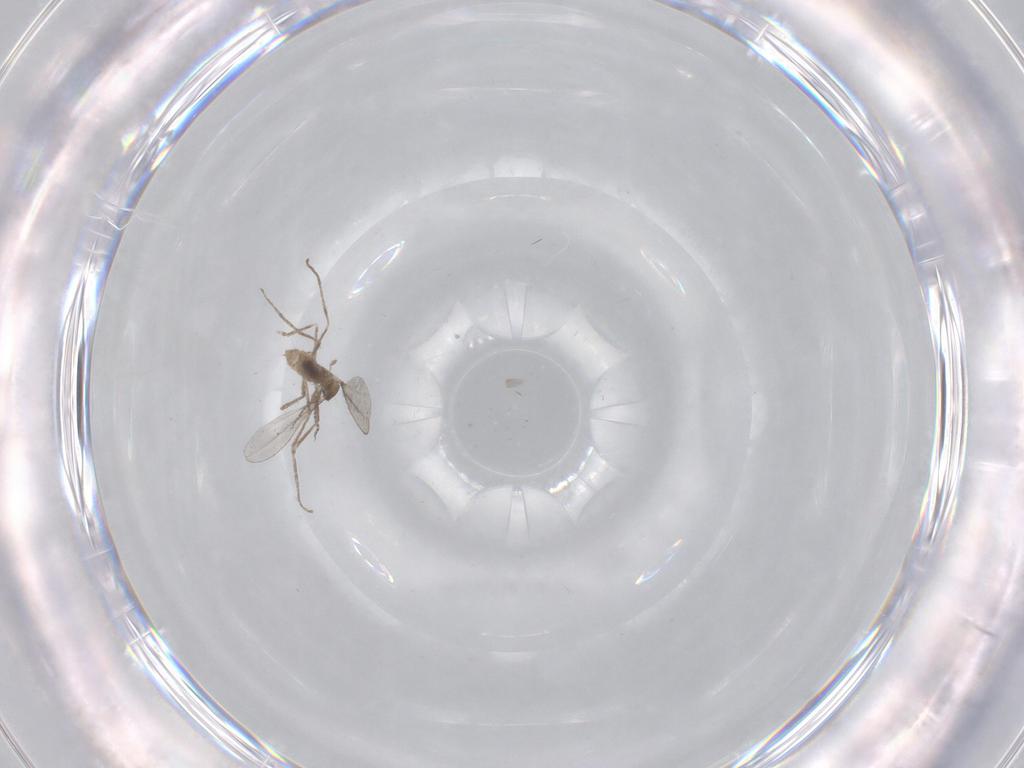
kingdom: Animalia
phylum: Arthropoda
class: Insecta
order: Diptera
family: Cecidomyiidae
